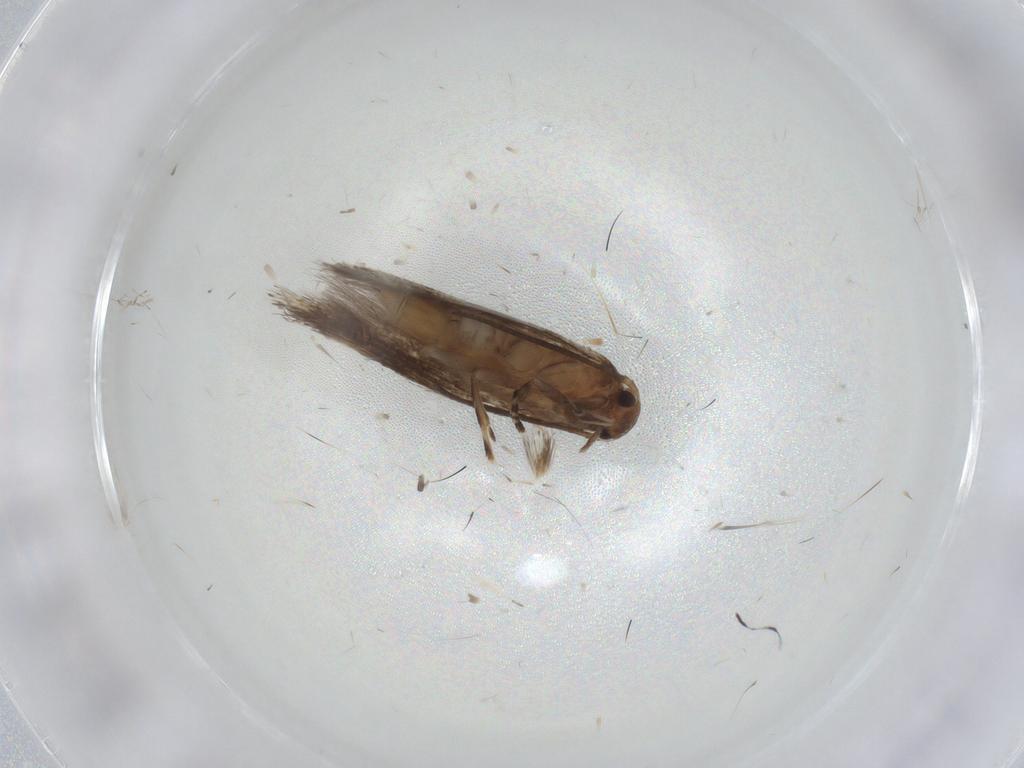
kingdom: Animalia
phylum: Arthropoda
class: Insecta
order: Lepidoptera
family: Elachistidae
